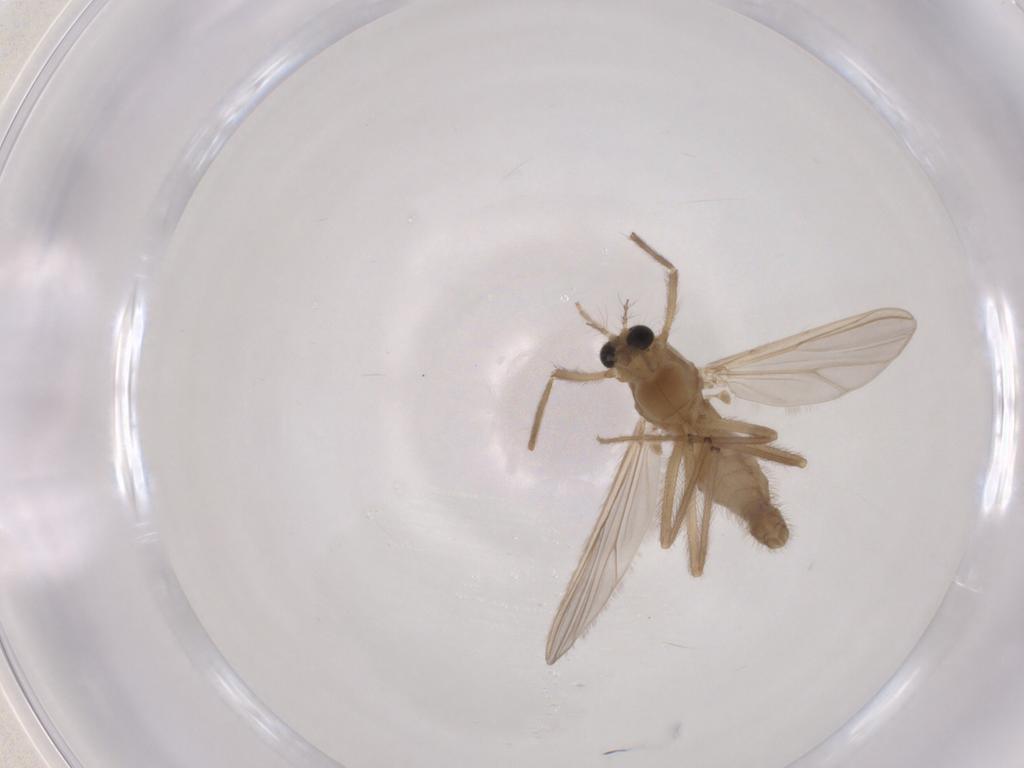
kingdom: Animalia
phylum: Arthropoda
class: Insecta
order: Diptera
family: Chironomidae
